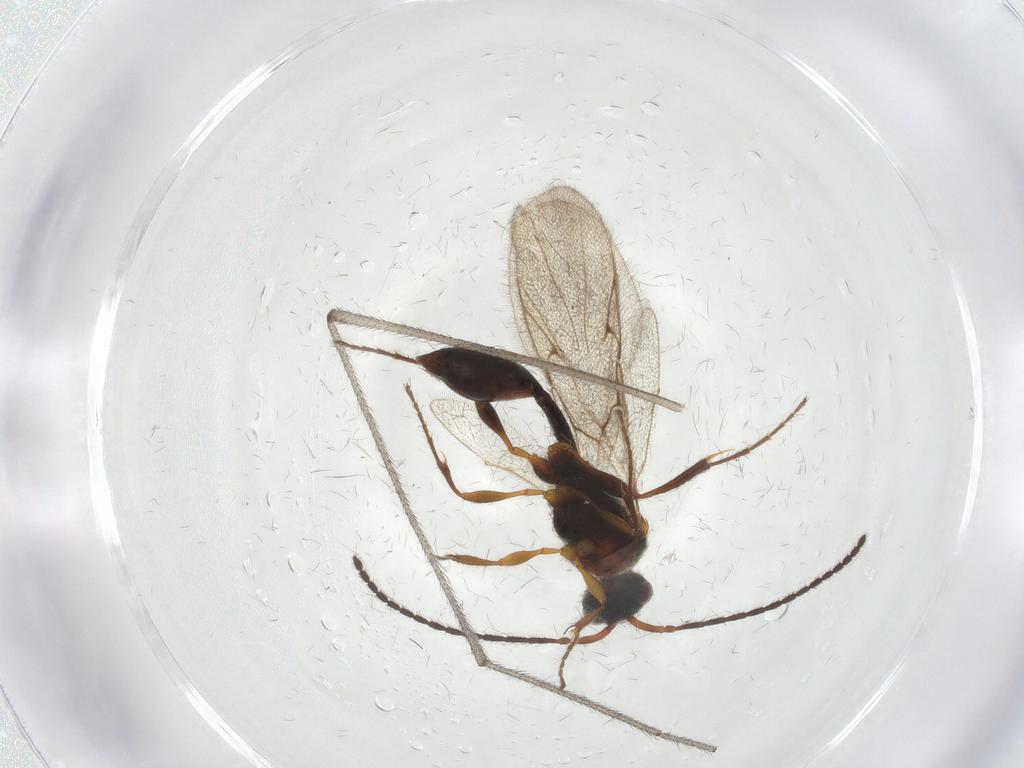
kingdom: Animalia
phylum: Arthropoda
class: Insecta
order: Hymenoptera
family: Diapriidae
